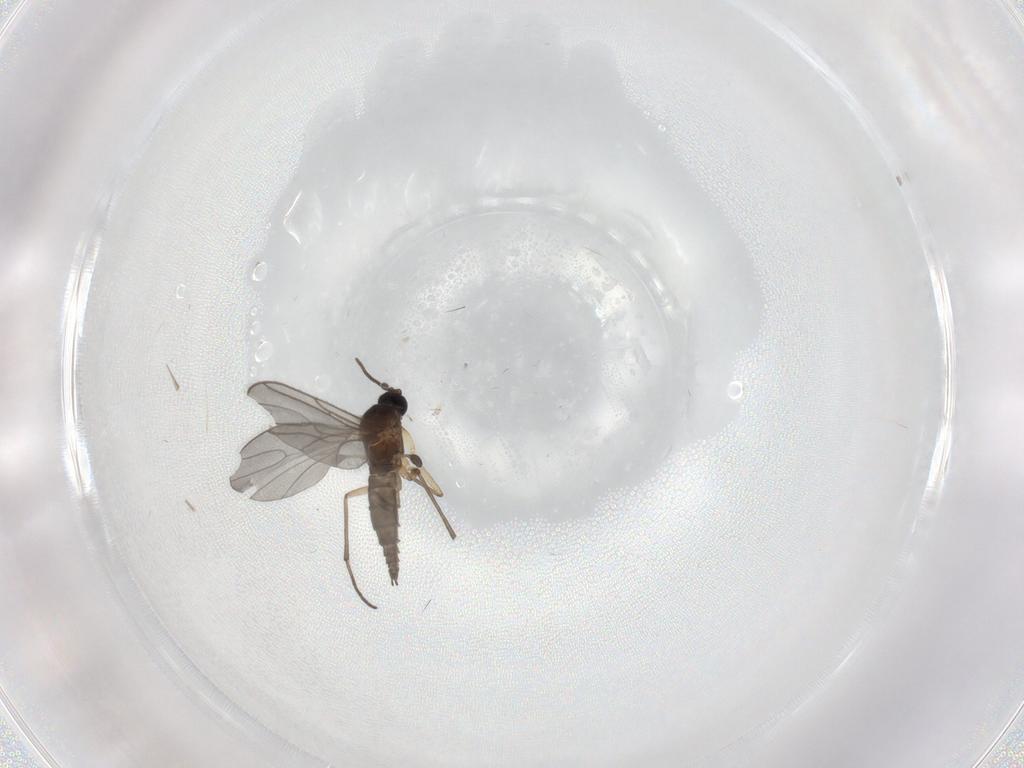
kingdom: Animalia
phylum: Arthropoda
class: Insecta
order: Diptera
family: Sciaridae
